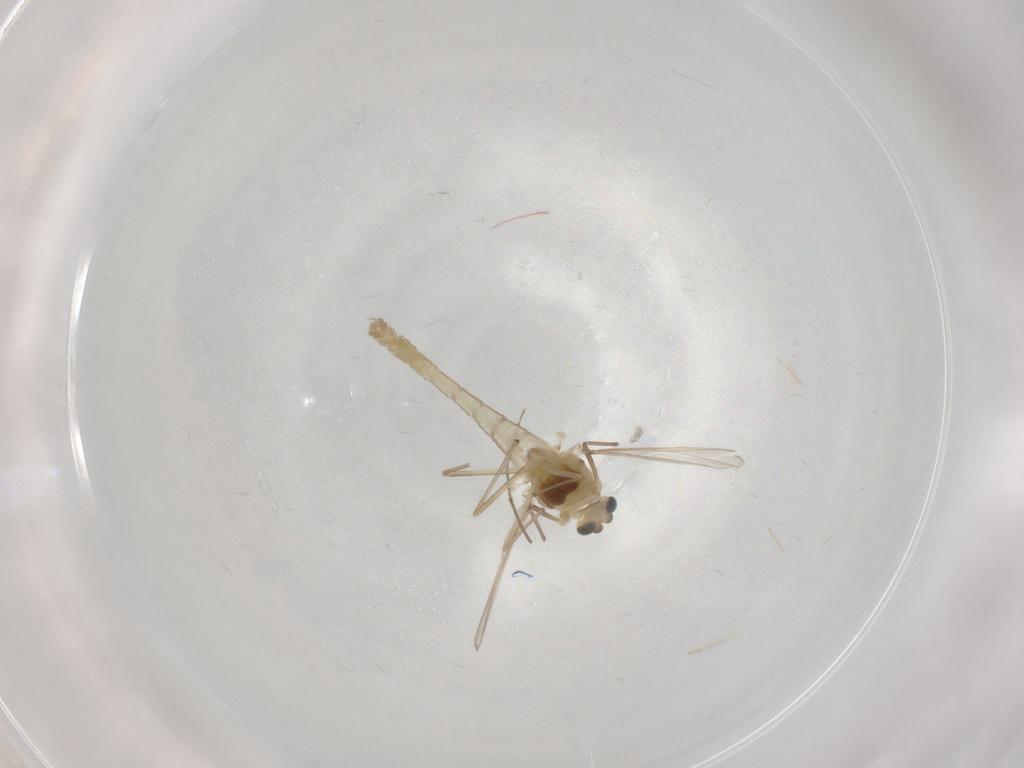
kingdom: Animalia
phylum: Arthropoda
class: Insecta
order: Diptera
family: Chironomidae
